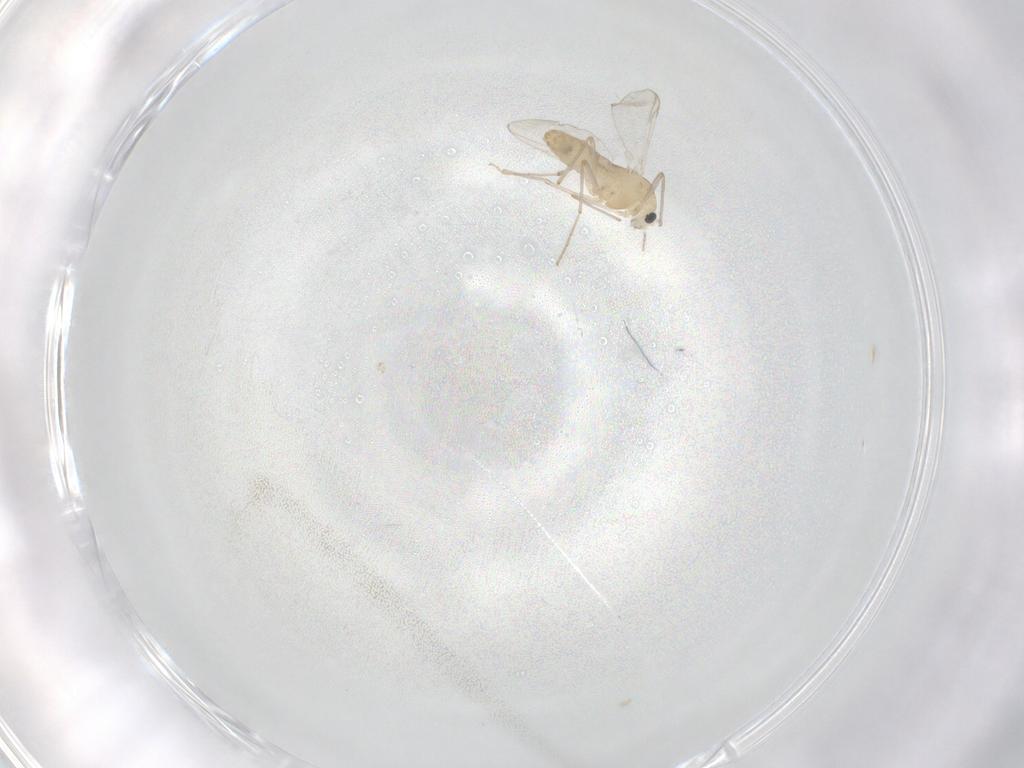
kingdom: Animalia
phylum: Arthropoda
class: Insecta
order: Diptera
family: Chironomidae
